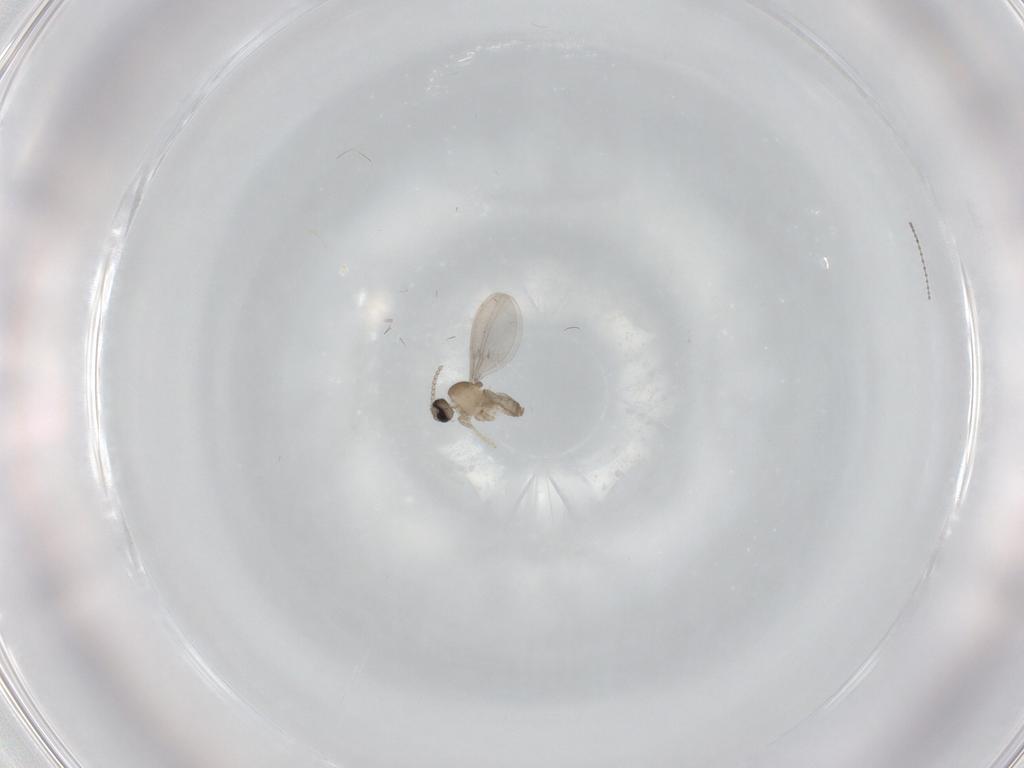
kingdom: Animalia
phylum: Arthropoda
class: Insecta
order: Diptera
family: Cecidomyiidae
